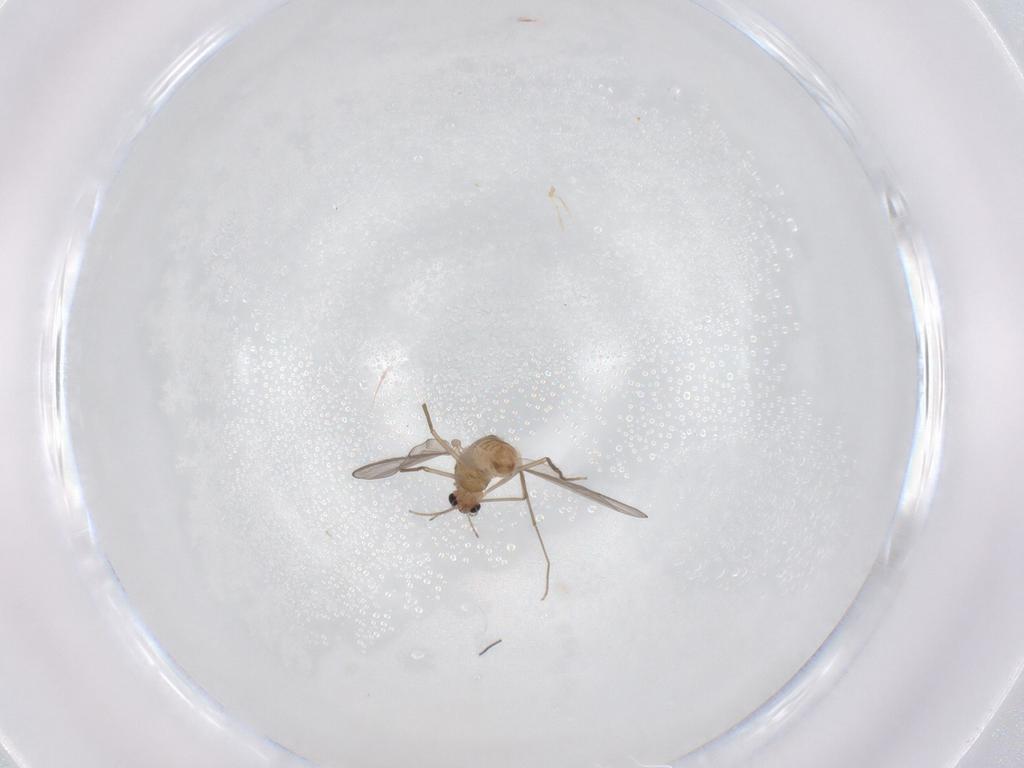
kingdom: Animalia
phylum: Arthropoda
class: Insecta
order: Diptera
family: Chironomidae
